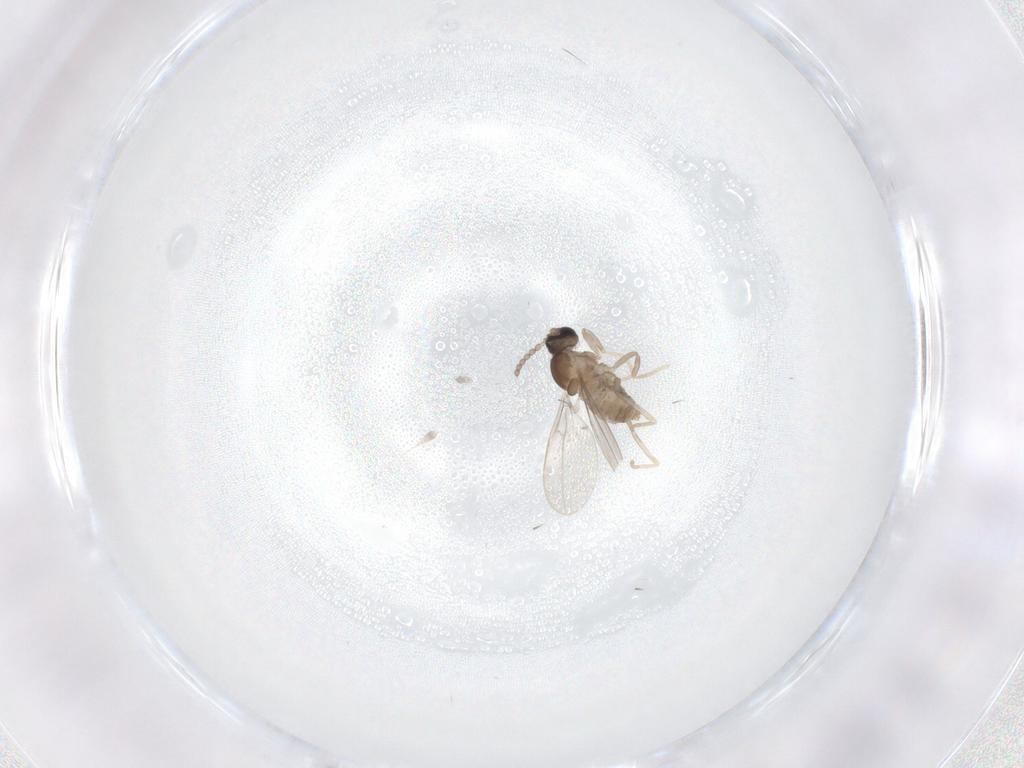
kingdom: Animalia
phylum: Arthropoda
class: Insecta
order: Diptera
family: Cecidomyiidae
